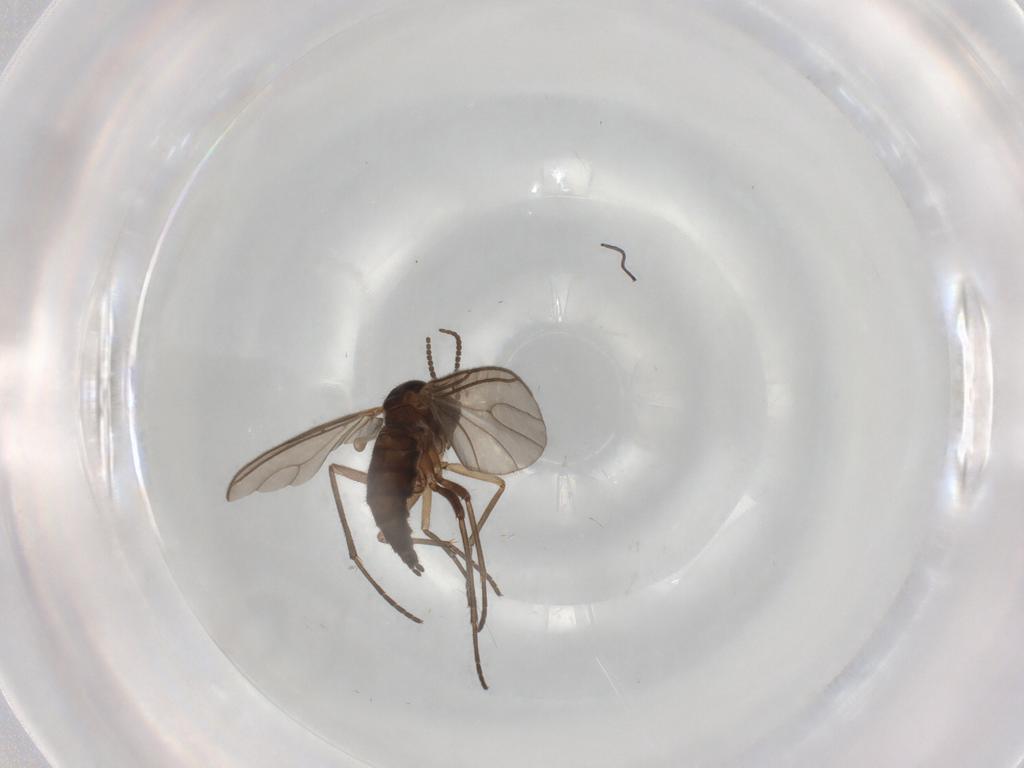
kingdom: Animalia
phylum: Arthropoda
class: Insecta
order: Diptera
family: Sciaridae
